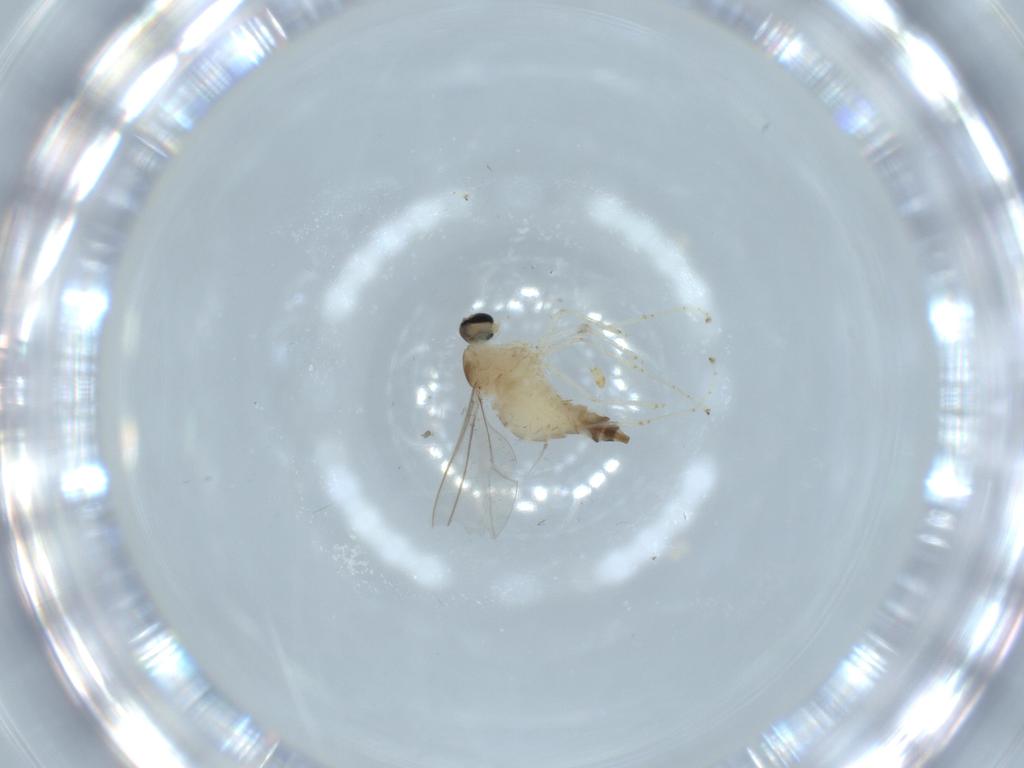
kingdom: Animalia
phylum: Arthropoda
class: Insecta
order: Diptera
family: Cecidomyiidae
